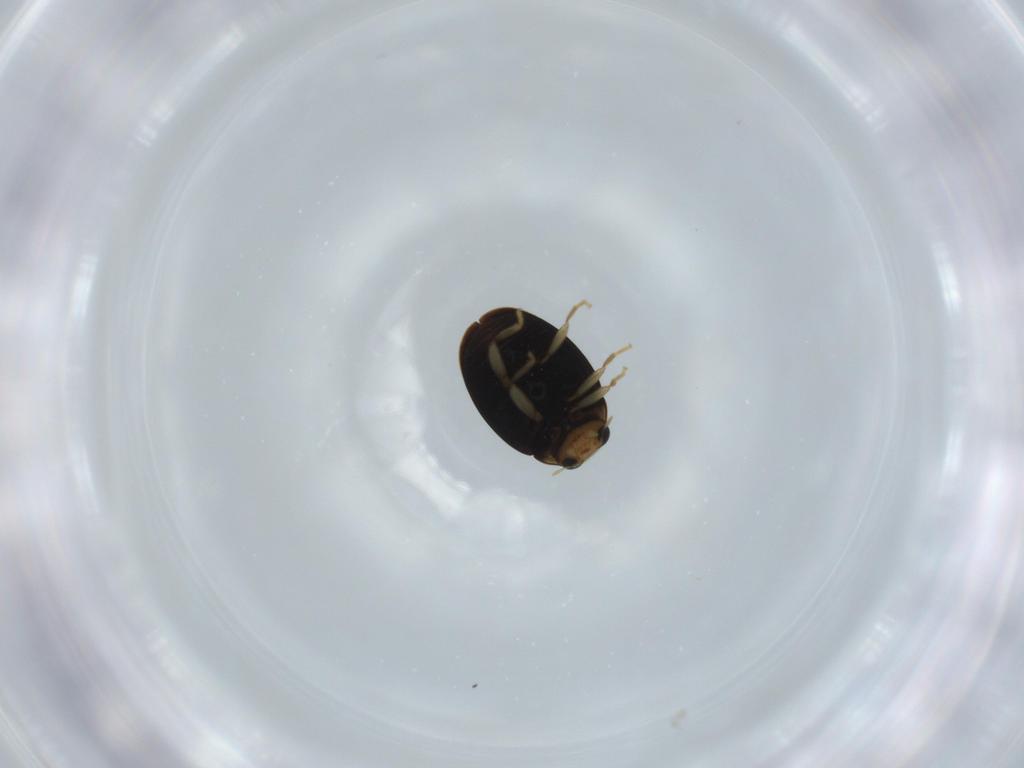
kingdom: Animalia
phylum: Arthropoda
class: Insecta
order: Coleoptera
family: Coccinellidae
